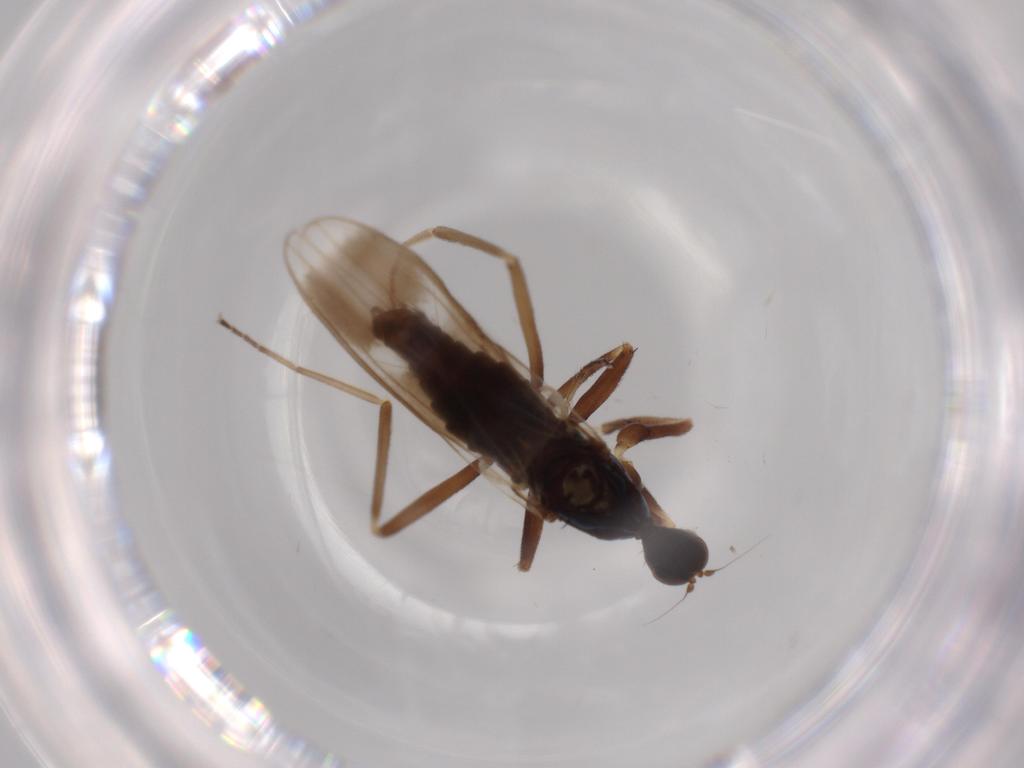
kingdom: Animalia
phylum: Arthropoda
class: Insecta
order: Diptera
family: Hybotidae
